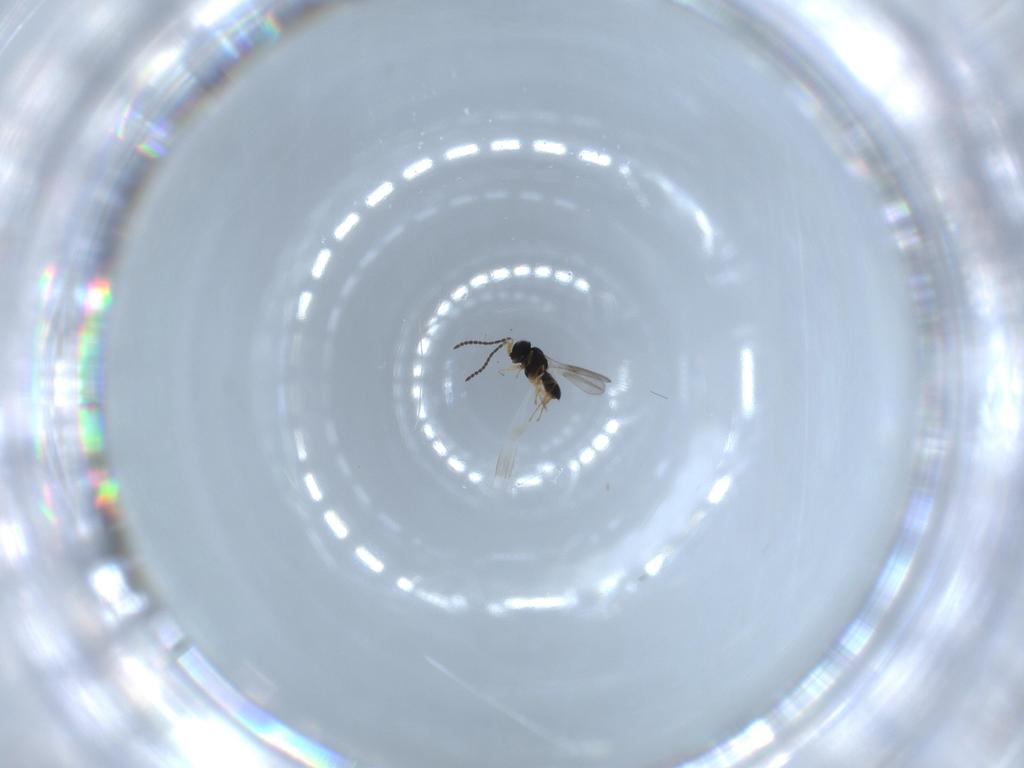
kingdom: Animalia
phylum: Arthropoda
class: Insecta
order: Hymenoptera
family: Scelionidae
